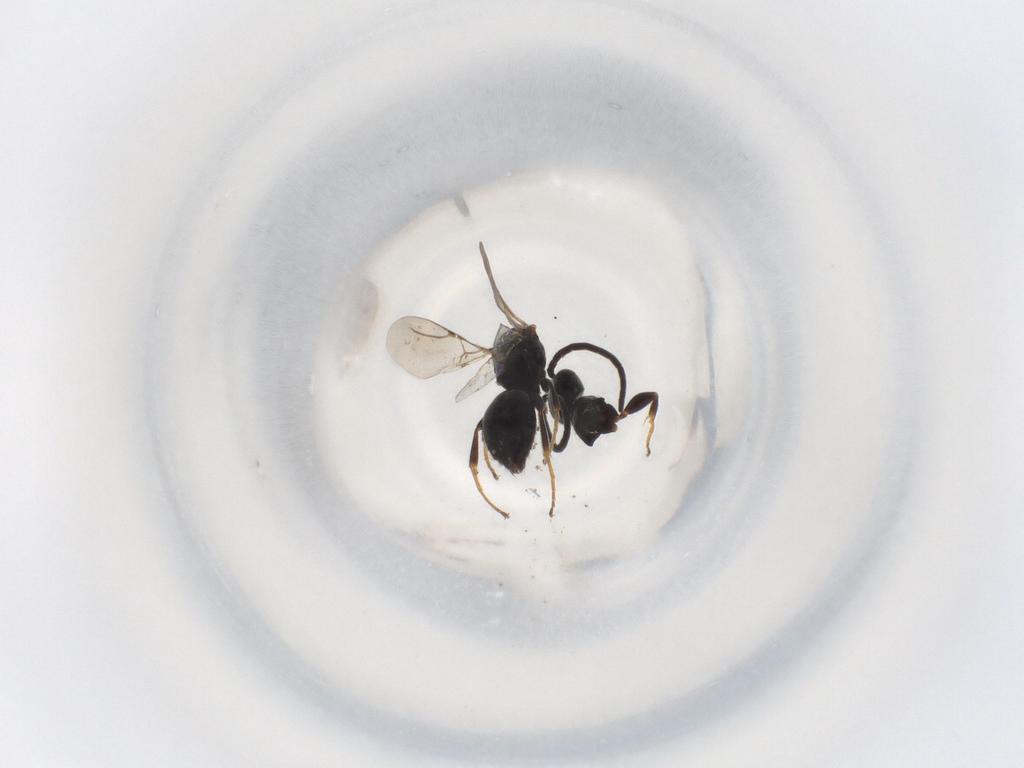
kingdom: Animalia
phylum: Arthropoda
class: Insecta
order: Hymenoptera
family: Bethylidae
